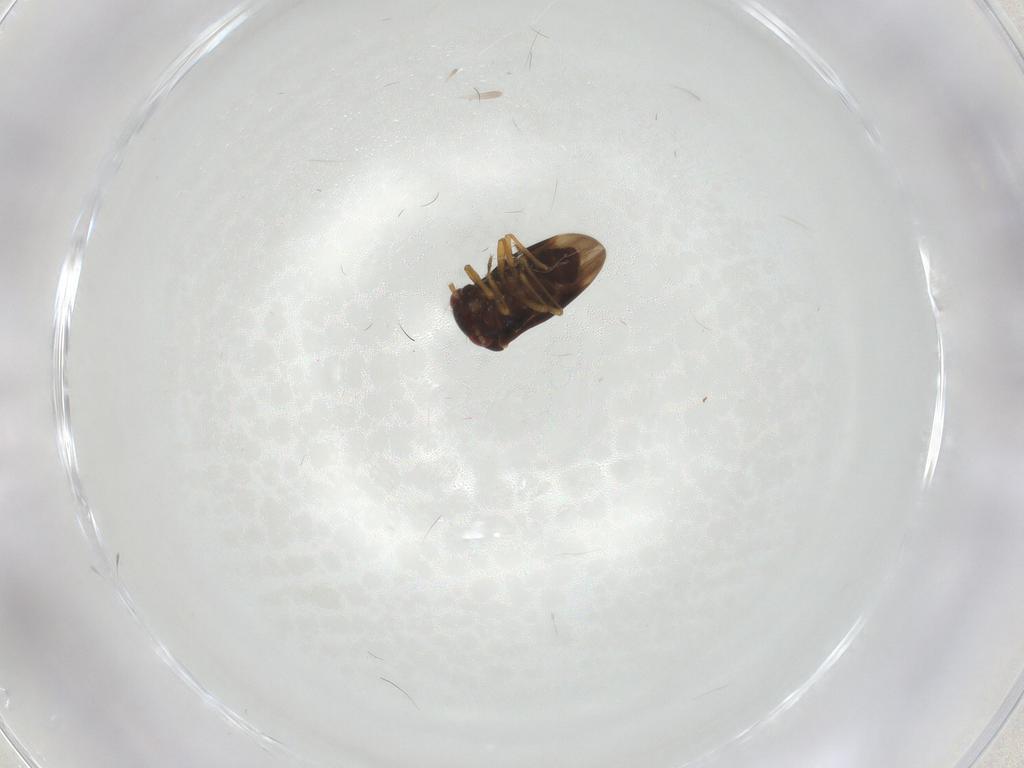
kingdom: Animalia
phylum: Arthropoda
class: Insecta
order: Hemiptera
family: Schizopteridae
